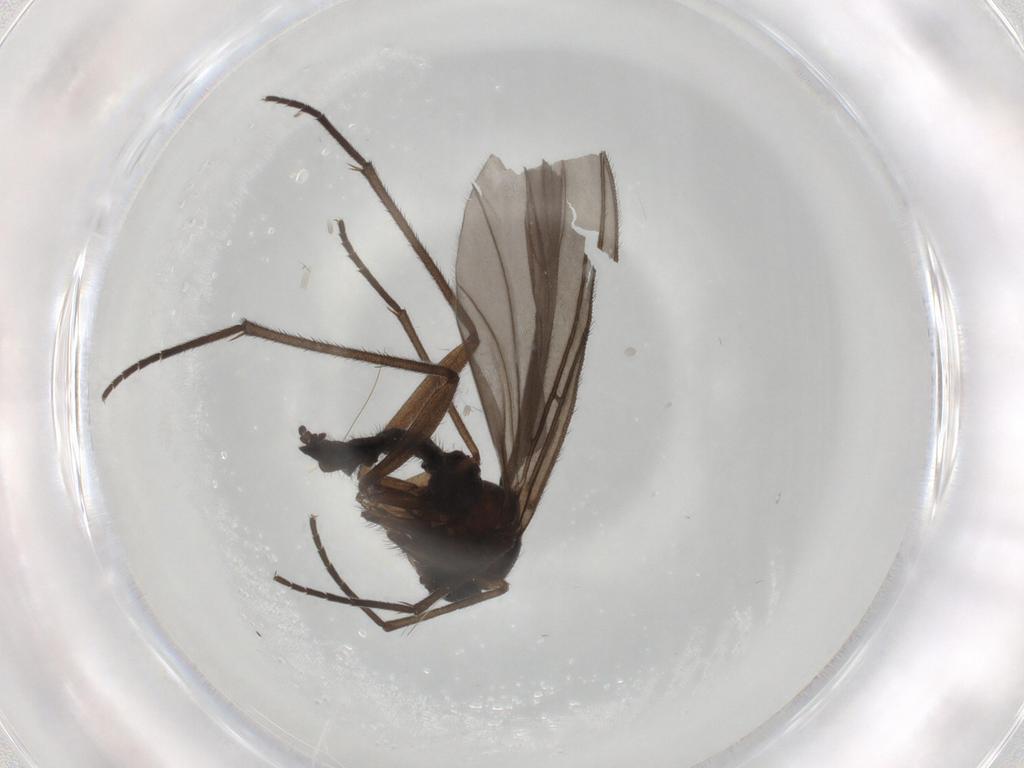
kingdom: Animalia
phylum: Arthropoda
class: Insecta
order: Diptera
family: Sciaridae
